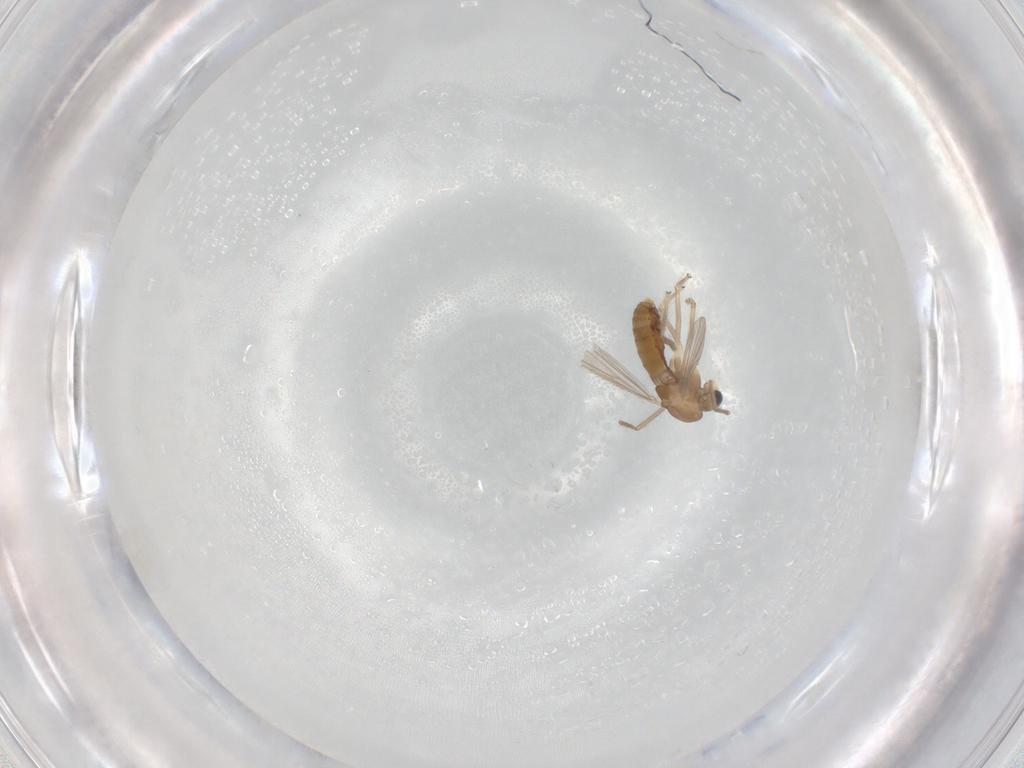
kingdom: Animalia
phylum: Arthropoda
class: Insecta
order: Diptera
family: Chironomidae
